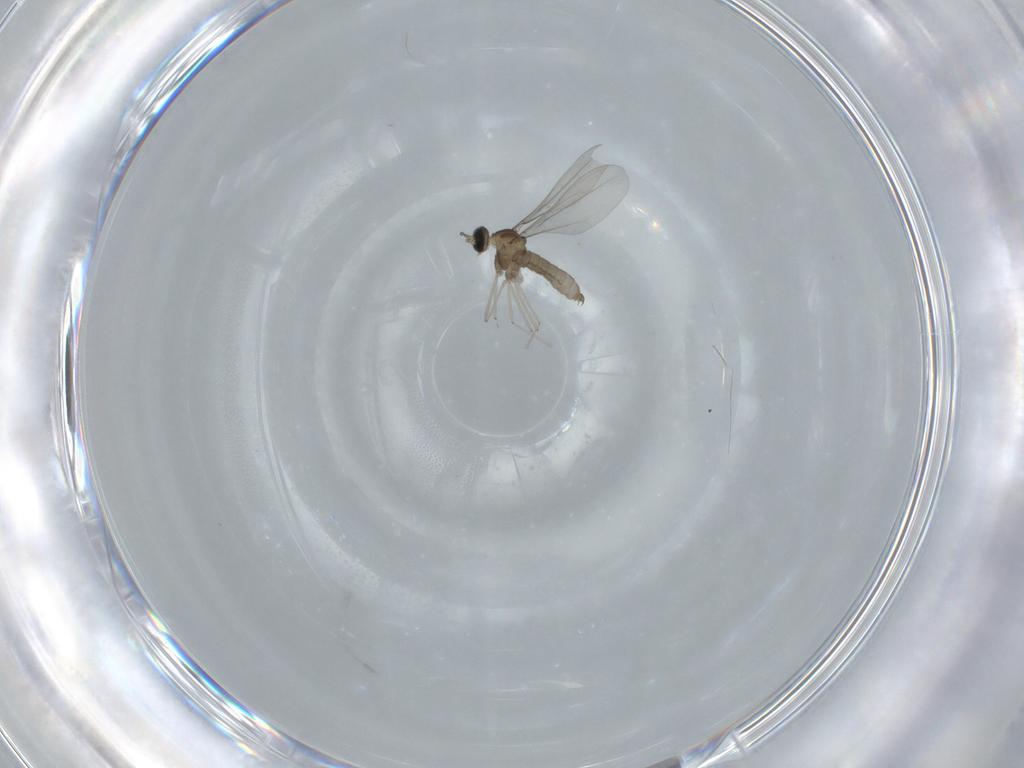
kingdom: Animalia
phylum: Arthropoda
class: Insecta
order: Diptera
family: Cecidomyiidae
